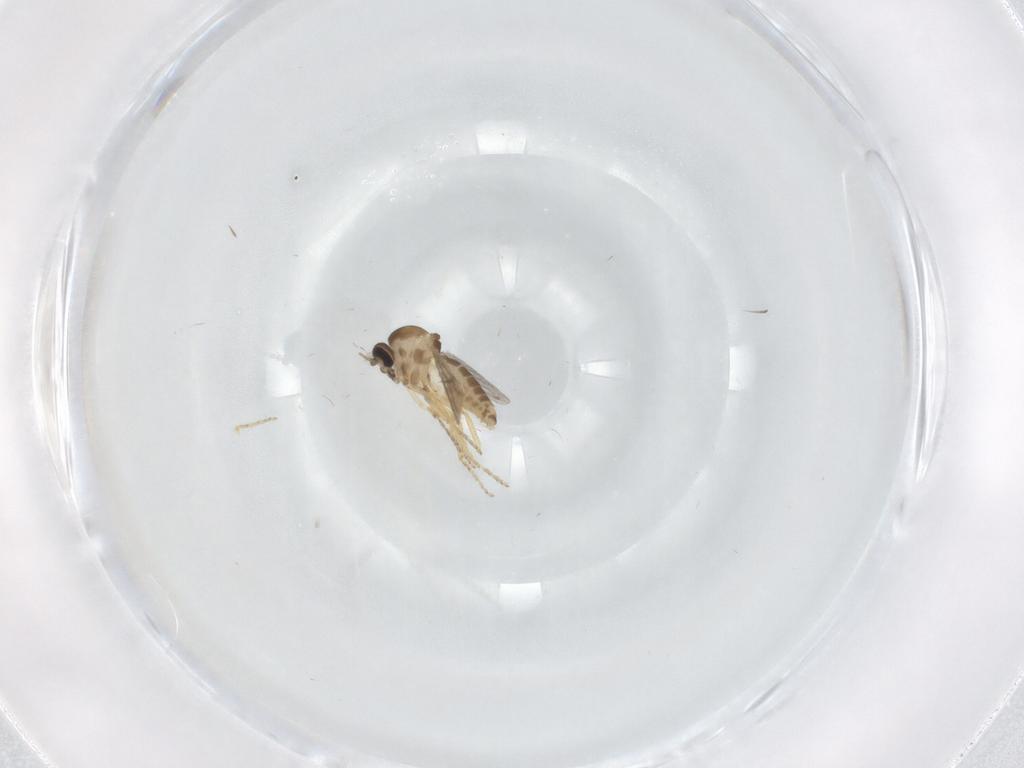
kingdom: Animalia
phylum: Arthropoda
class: Insecta
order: Diptera
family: Ceratopogonidae
